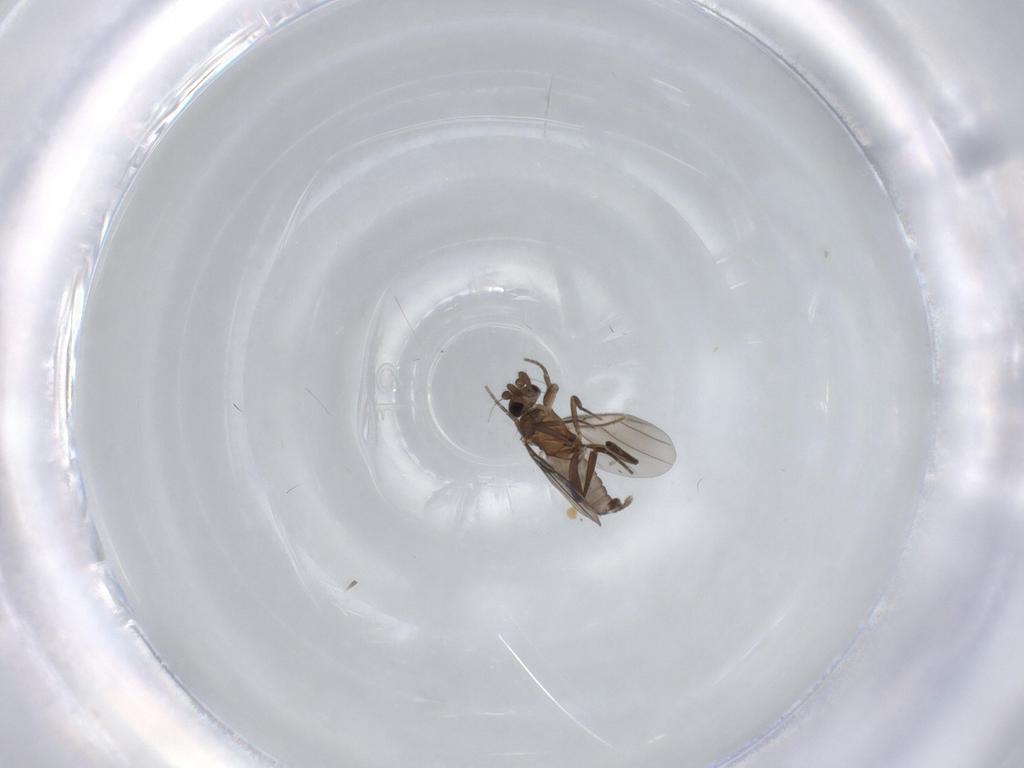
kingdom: Animalia
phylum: Arthropoda
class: Insecta
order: Diptera
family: Limoniidae
